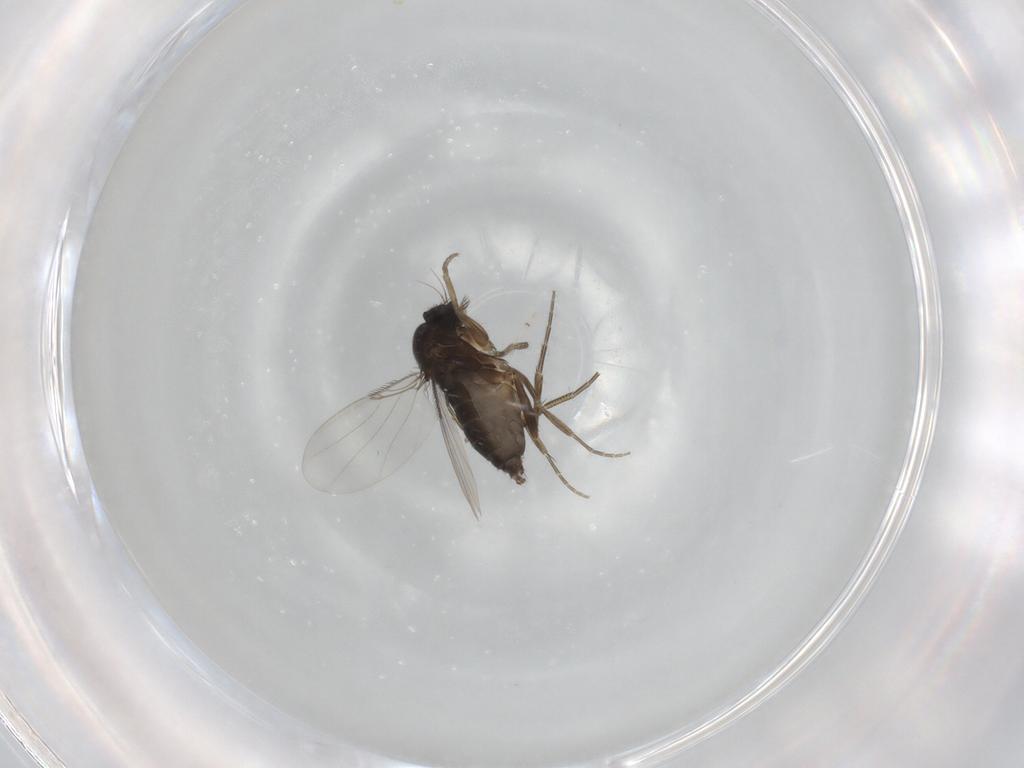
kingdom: Animalia
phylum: Arthropoda
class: Insecta
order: Diptera
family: Phoridae
